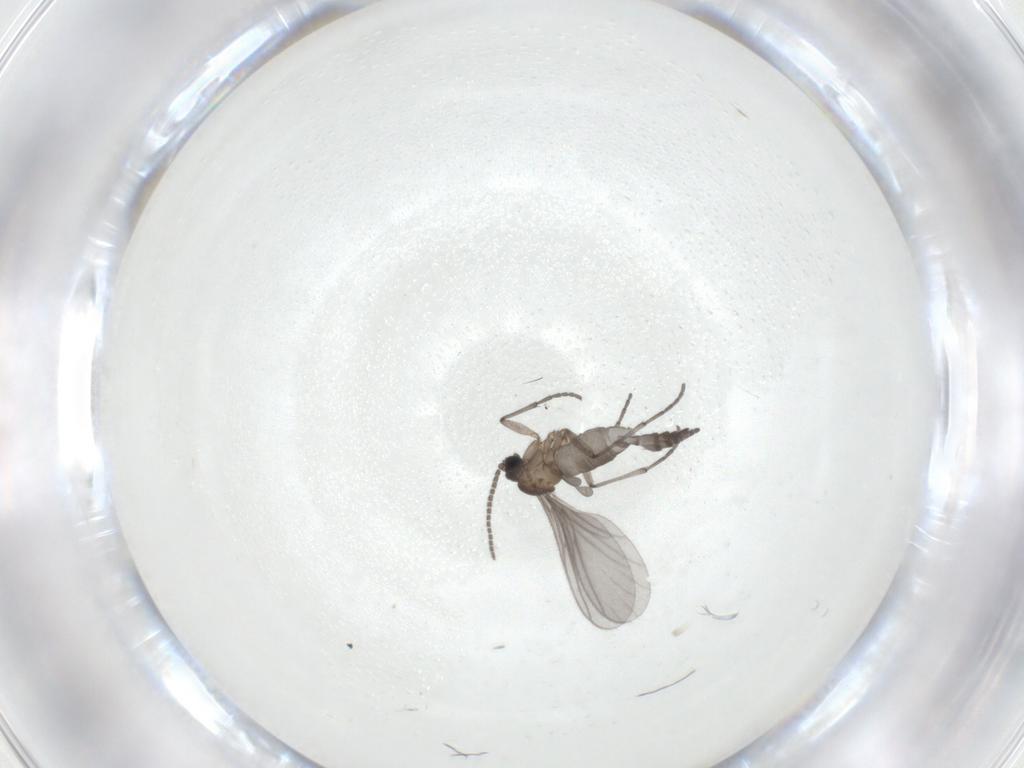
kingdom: Animalia
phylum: Arthropoda
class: Insecta
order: Diptera
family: Sciaridae
